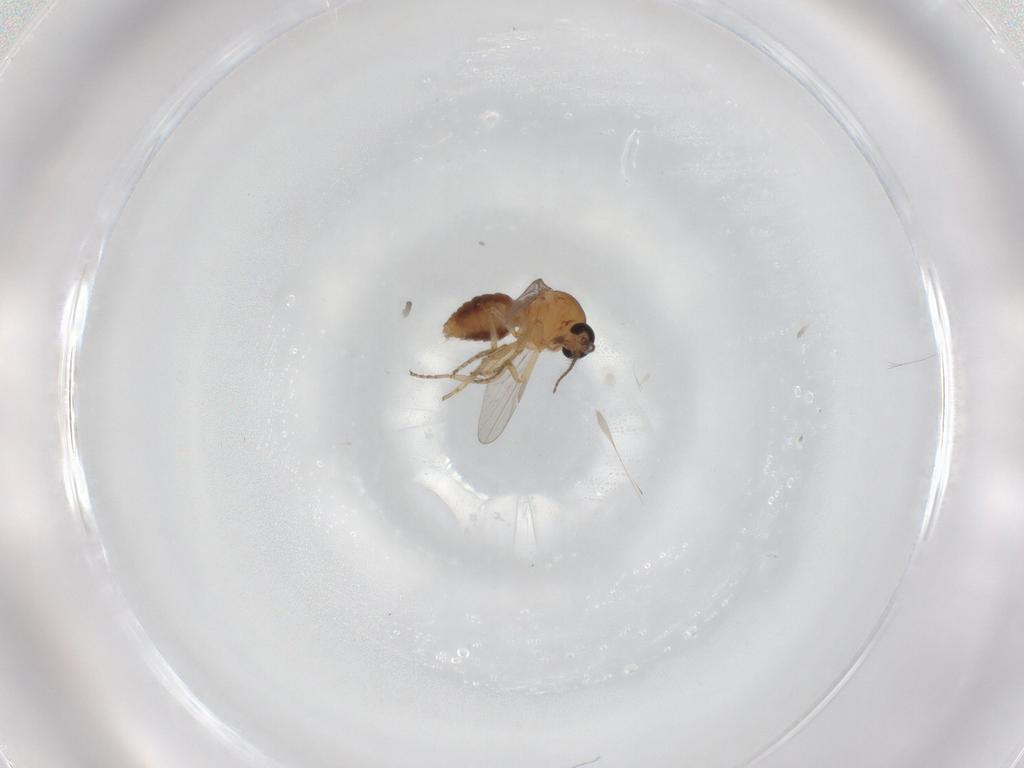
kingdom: Animalia
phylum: Arthropoda
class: Insecta
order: Diptera
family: Ceratopogonidae
